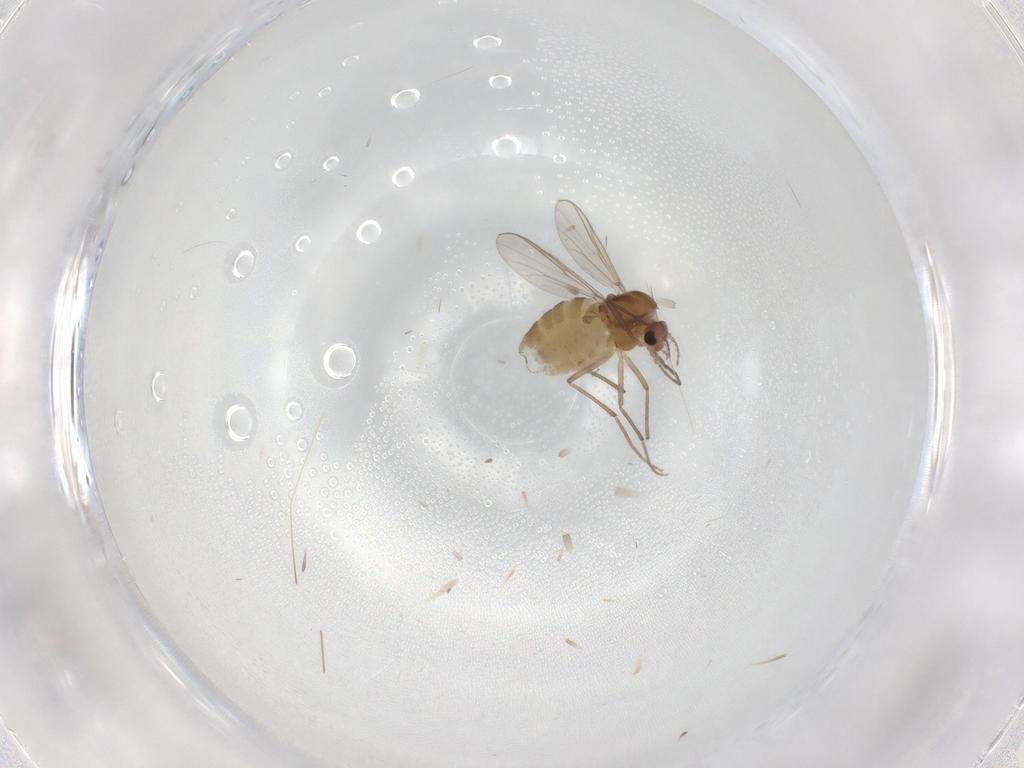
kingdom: Animalia
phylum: Arthropoda
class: Insecta
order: Diptera
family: Chironomidae
